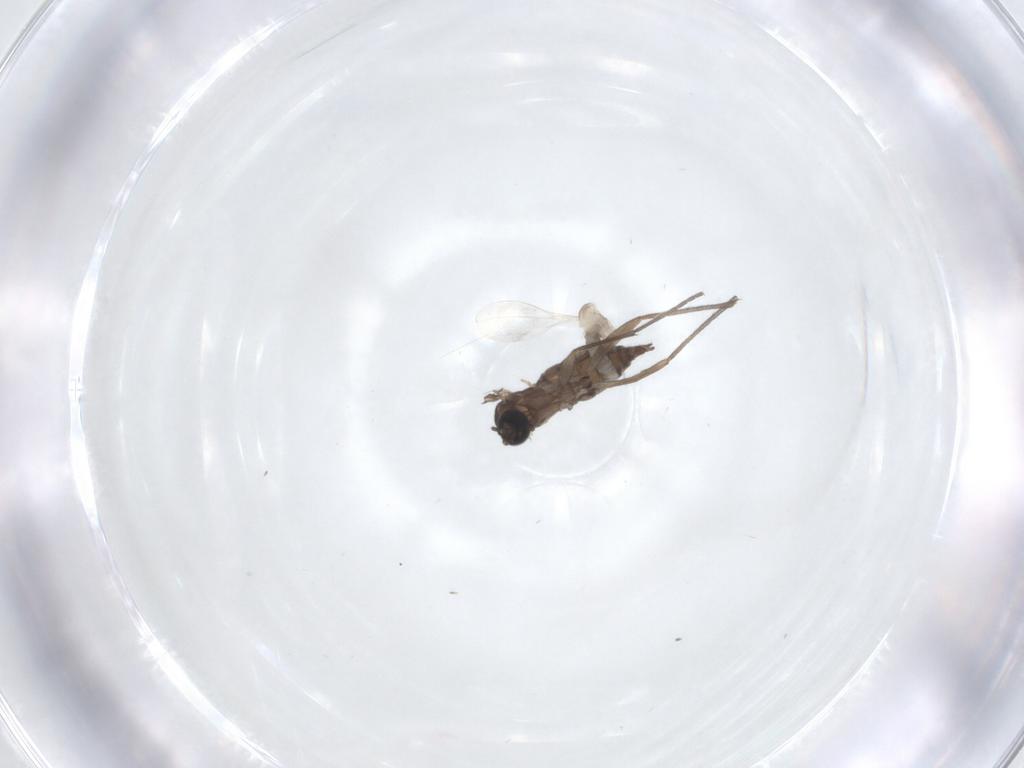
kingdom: Animalia
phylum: Arthropoda
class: Insecta
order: Diptera
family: Sciaridae
